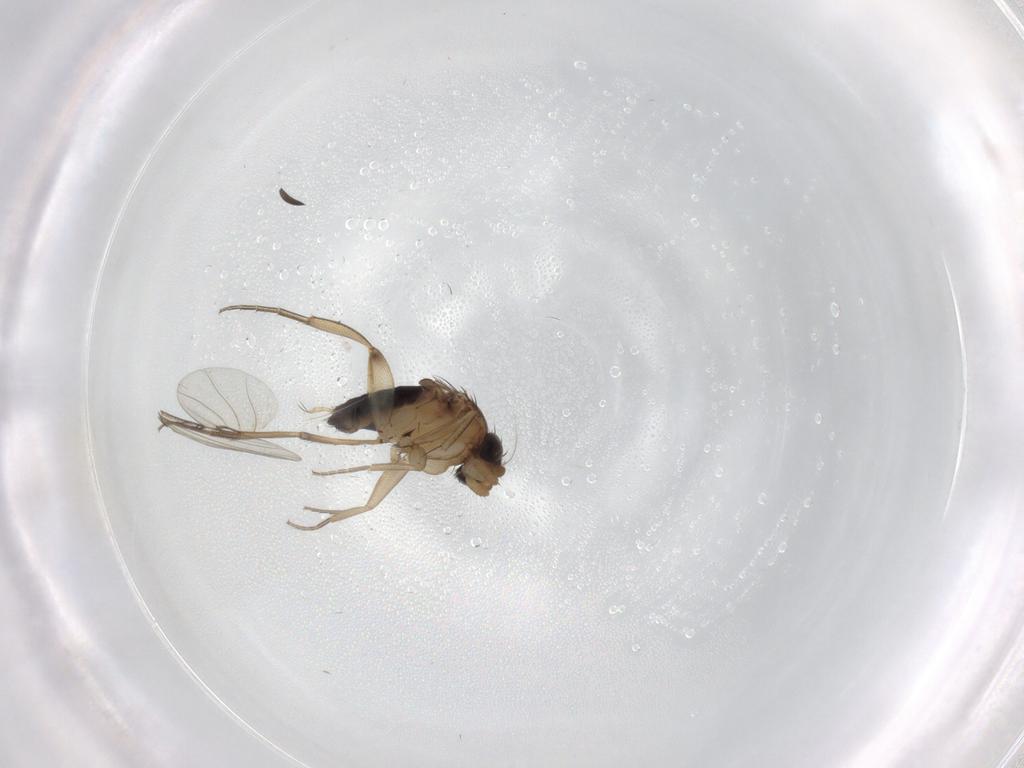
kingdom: Animalia
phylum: Arthropoda
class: Insecta
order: Diptera
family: Chironomidae
